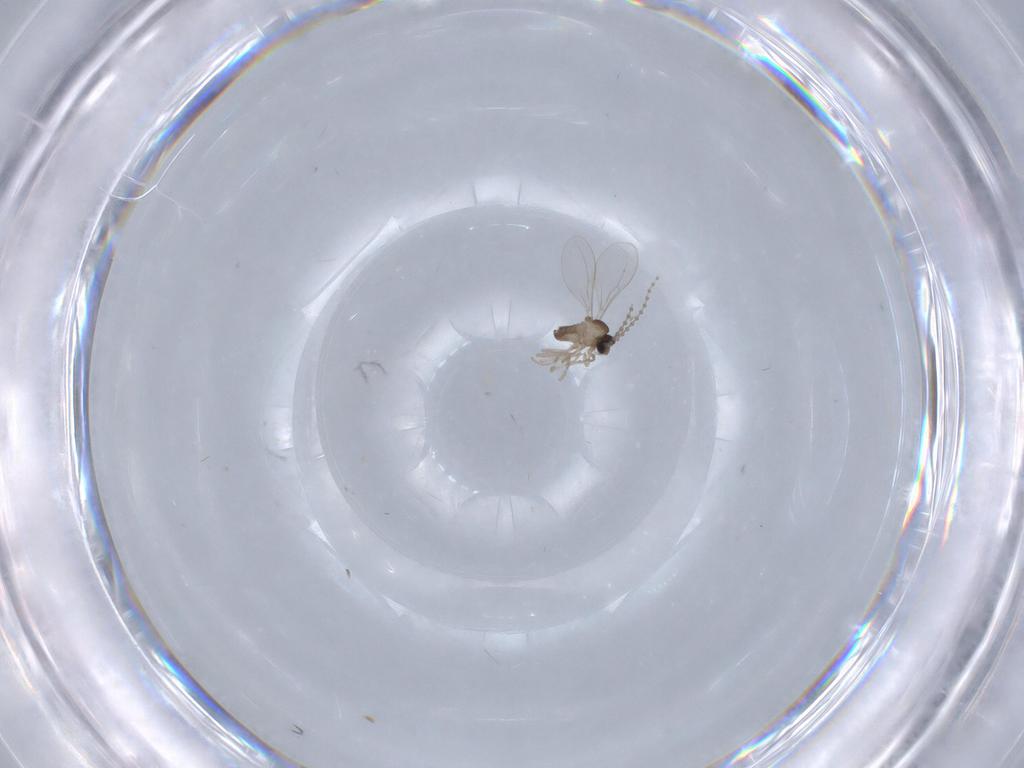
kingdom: Animalia
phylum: Arthropoda
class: Insecta
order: Diptera
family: Cecidomyiidae
